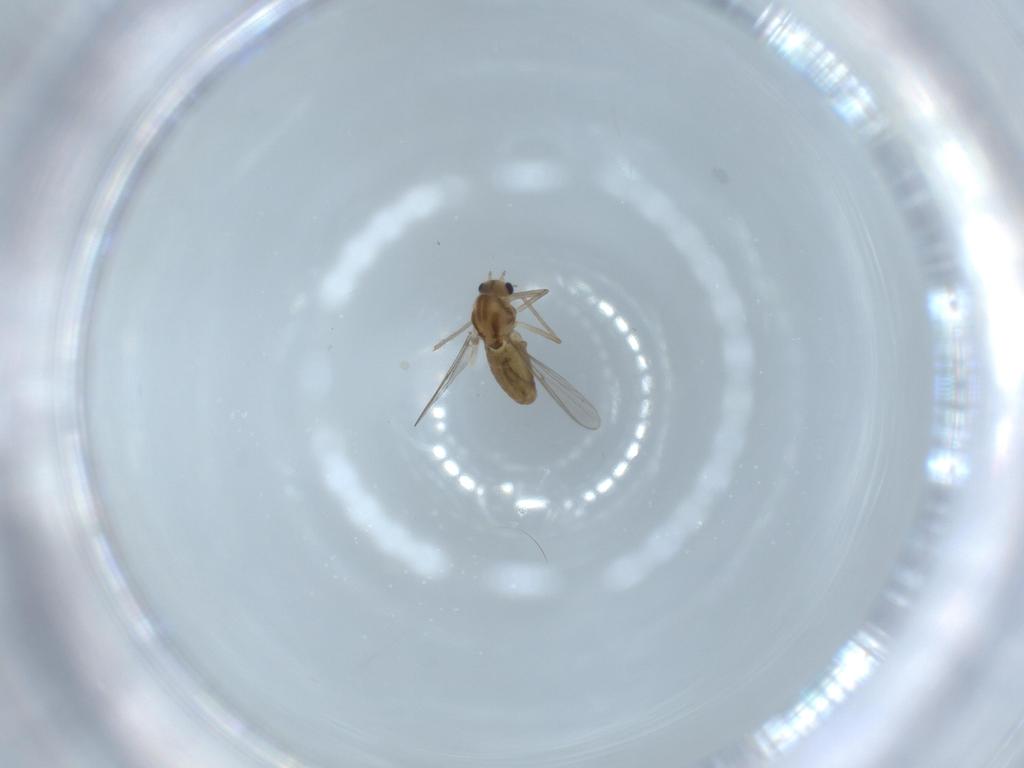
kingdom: Animalia
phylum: Arthropoda
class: Insecta
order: Diptera
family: Chironomidae
